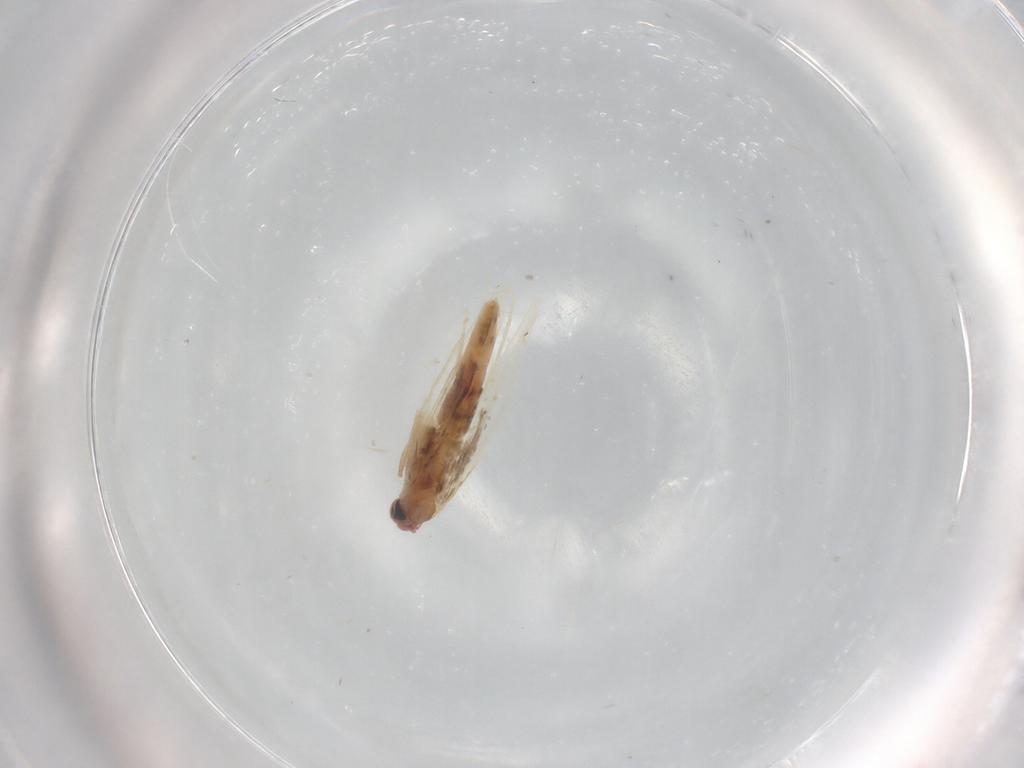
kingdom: Animalia
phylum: Arthropoda
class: Insecta
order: Lepidoptera
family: Gracillariidae
